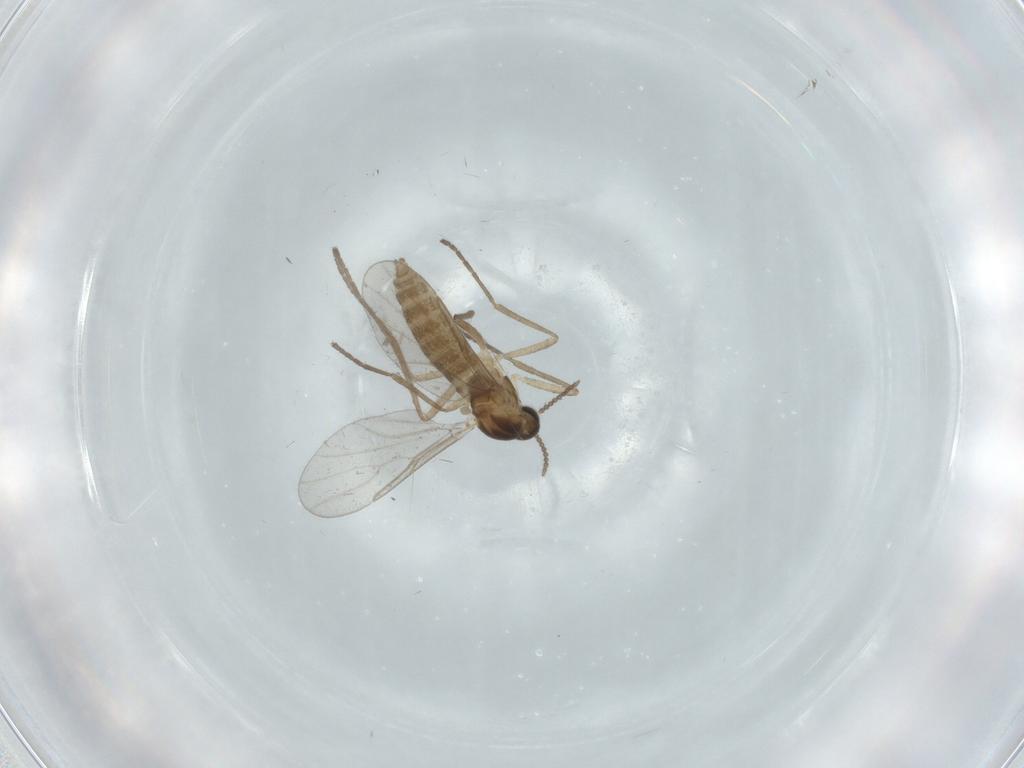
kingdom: Animalia
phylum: Arthropoda
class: Insecta
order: Diptera
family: Cecidomyiidae
